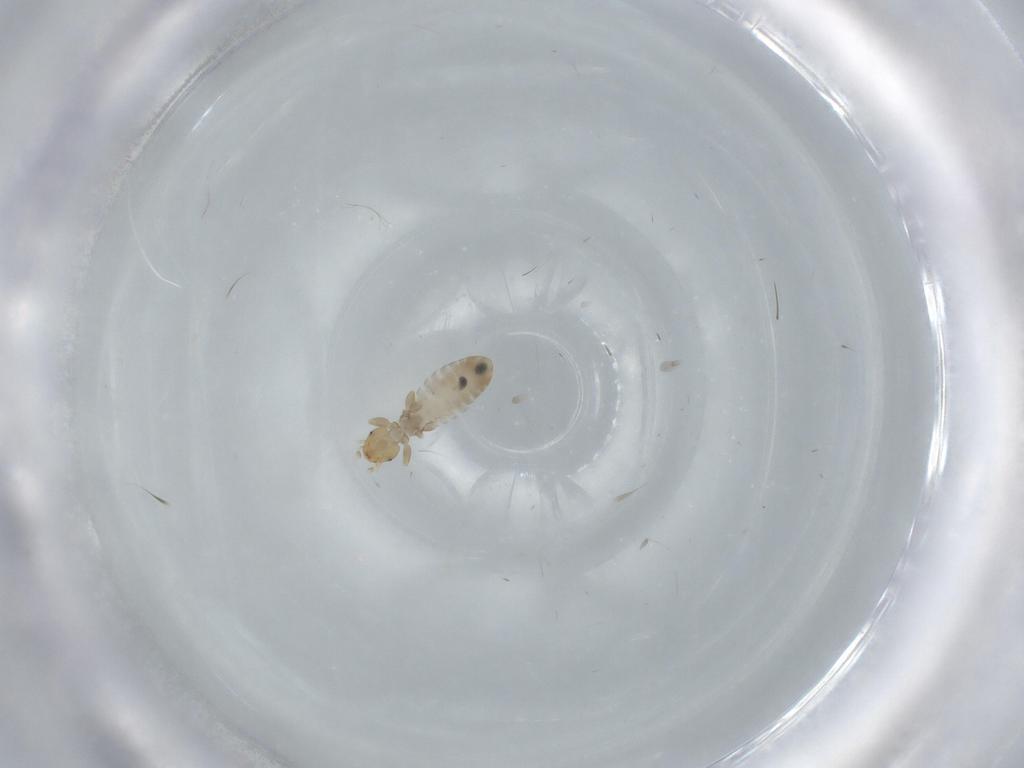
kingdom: Animalia
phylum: Arthropoda
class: Insecta
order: Psocodea
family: Liposcelididae
